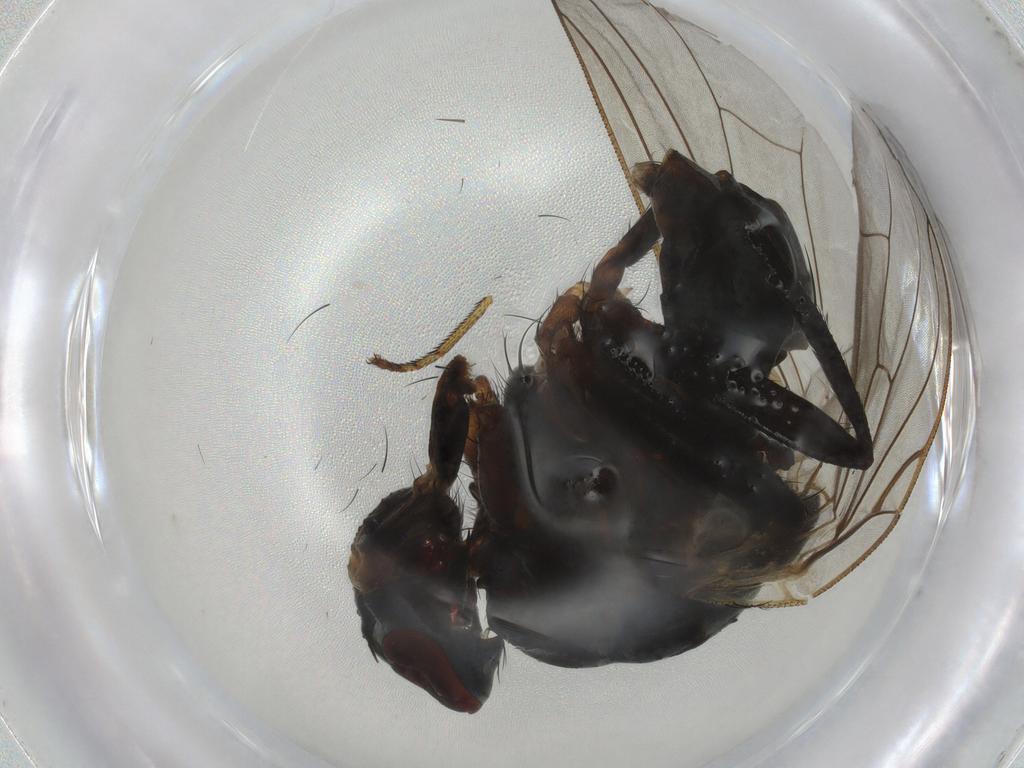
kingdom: Animalia
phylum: Arthropoda
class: Insecta
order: Diptera
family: Anthomyiidae
